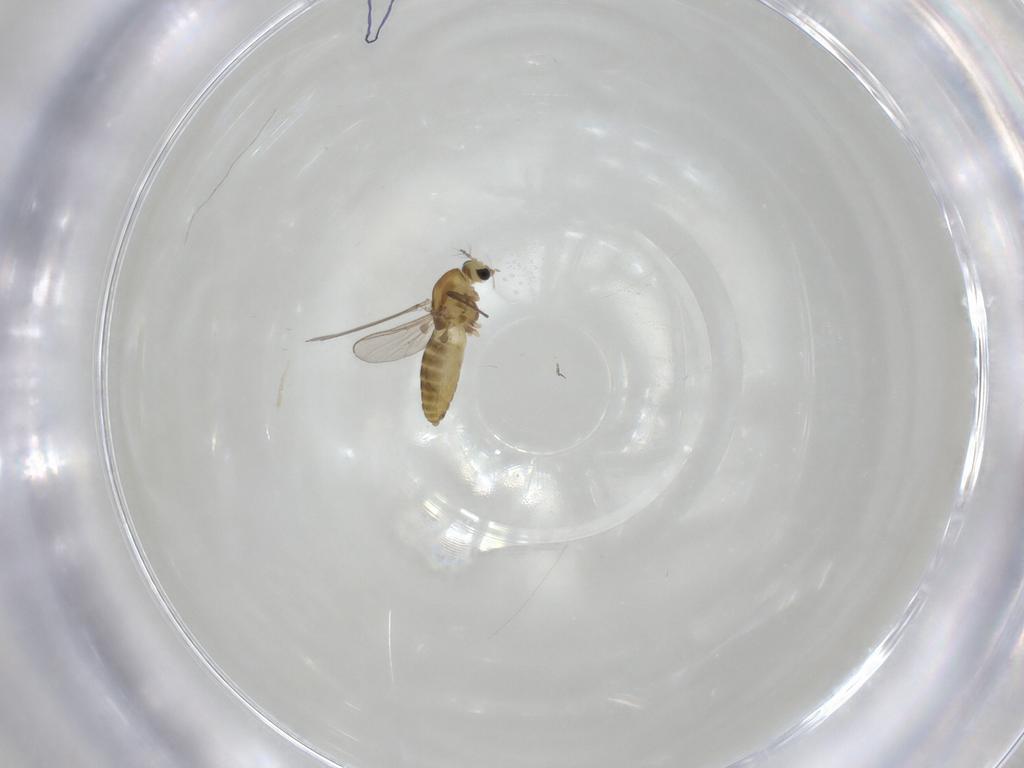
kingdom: Animalia
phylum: Arthropoda
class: Insecta
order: Diptera
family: Chironomidae
